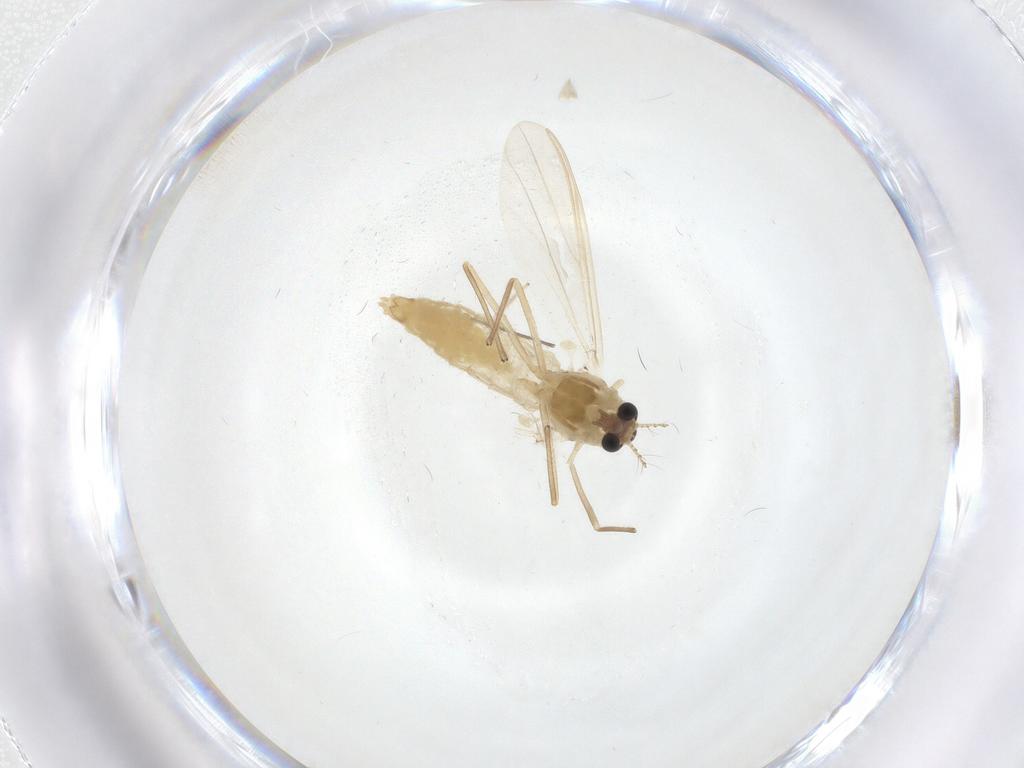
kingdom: Animalia
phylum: Arthropoda
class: Insecta
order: Diptera
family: Chironomidae
